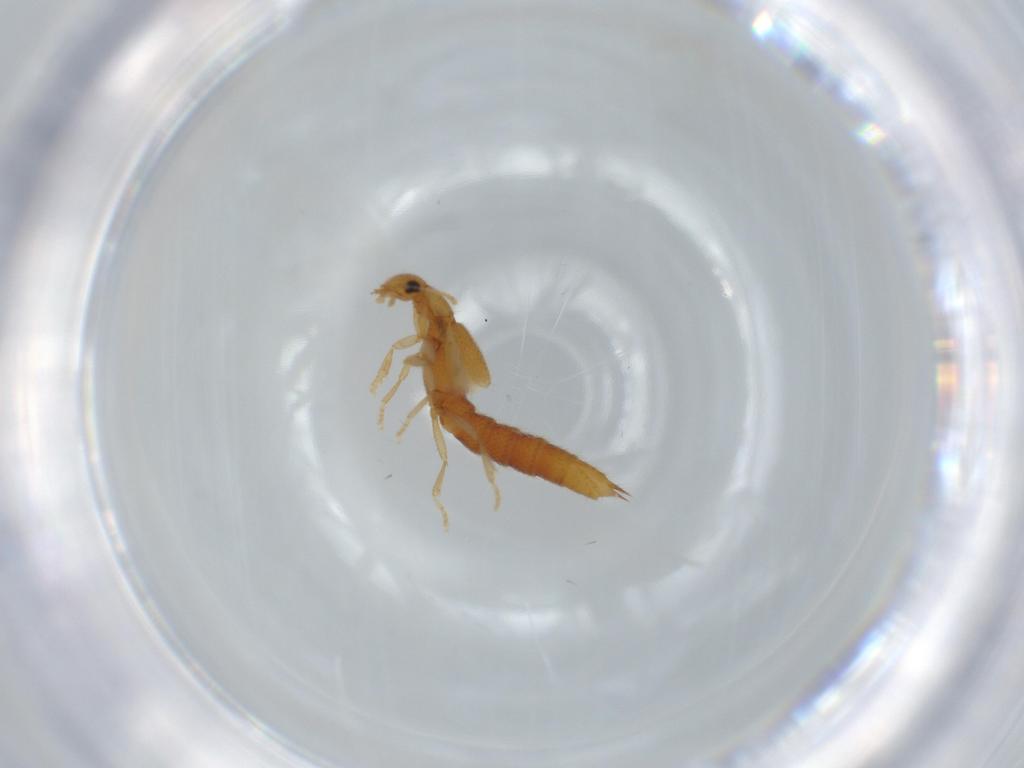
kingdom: Animalia
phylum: Arthropoda
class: Insecta
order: Coleoptera
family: Staphylinidae
